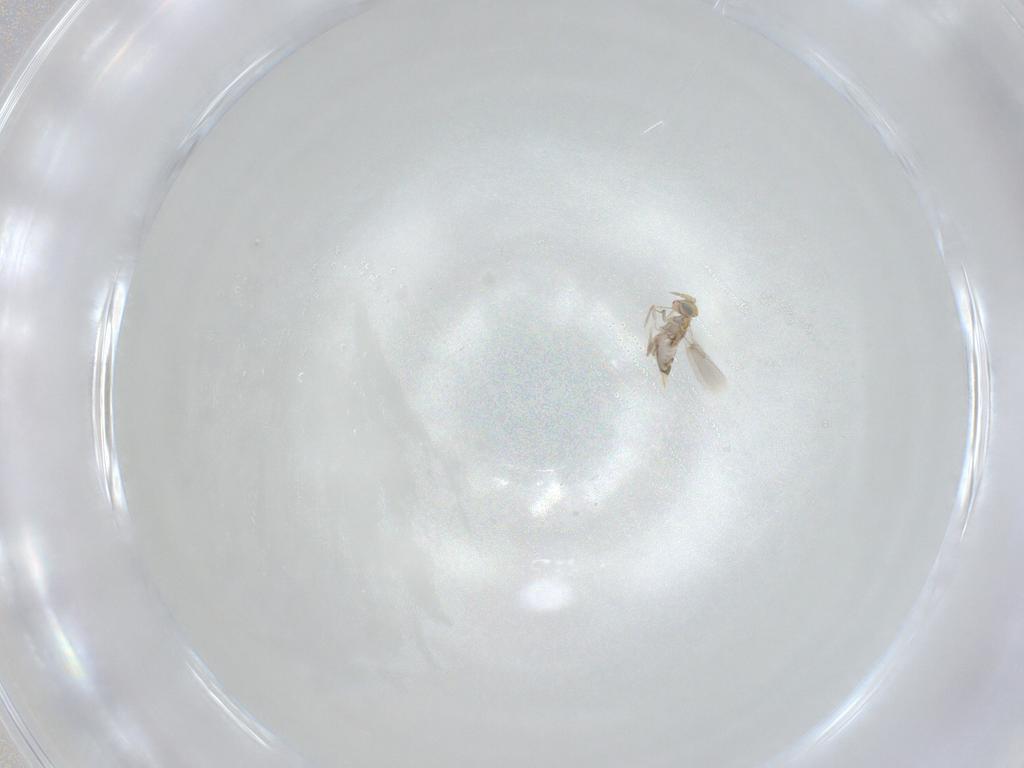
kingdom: Animalia
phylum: Arthropoda
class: Insecta
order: Hymenoptera
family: Aphelinidae
